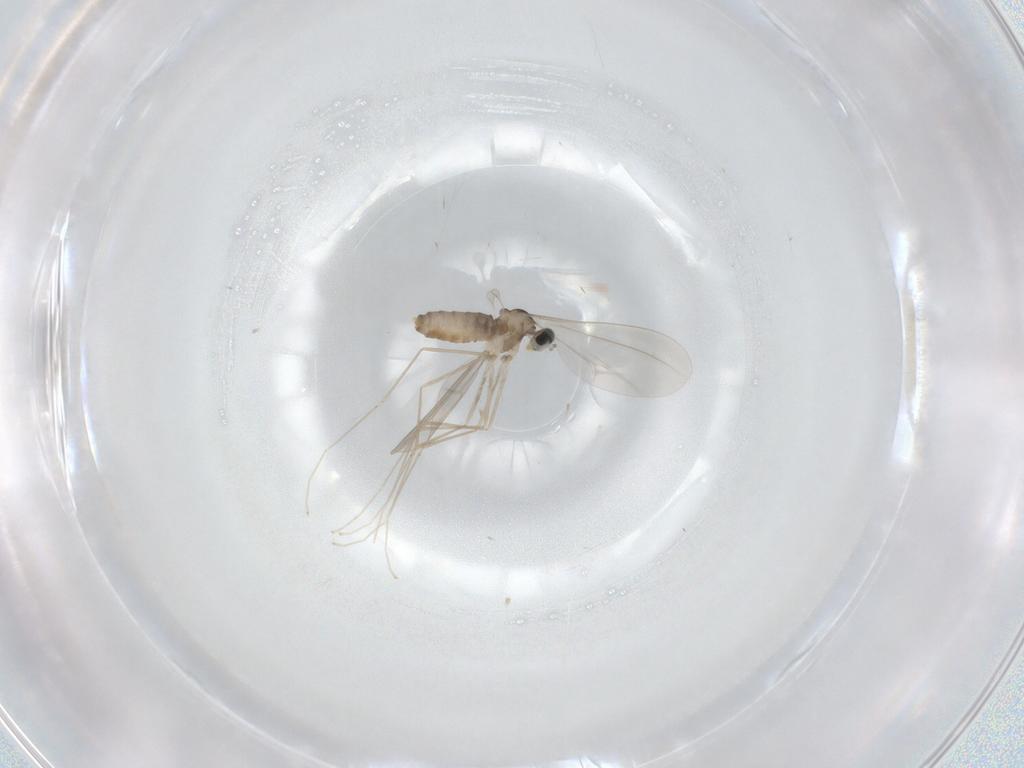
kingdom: Animalia
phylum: Arthropoda
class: Insecta
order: Diptera
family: Cecidomyiidae
